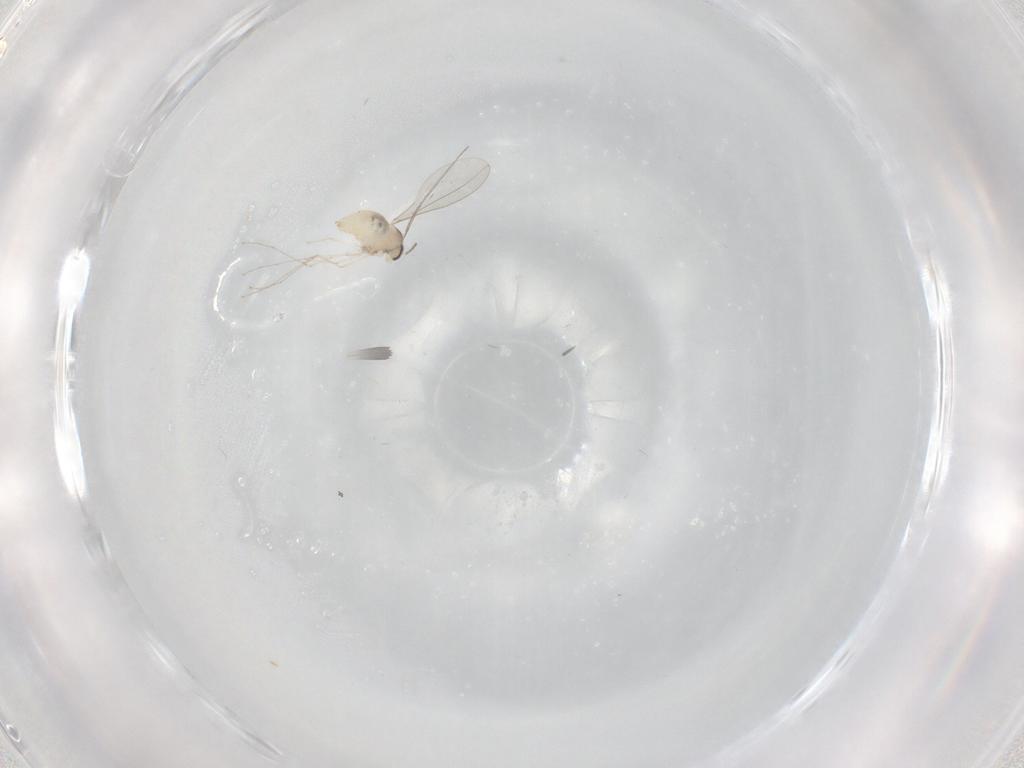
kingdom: Animalia
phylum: Arthropoda
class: Insecta
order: Diptera
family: Cecidomyiidae
